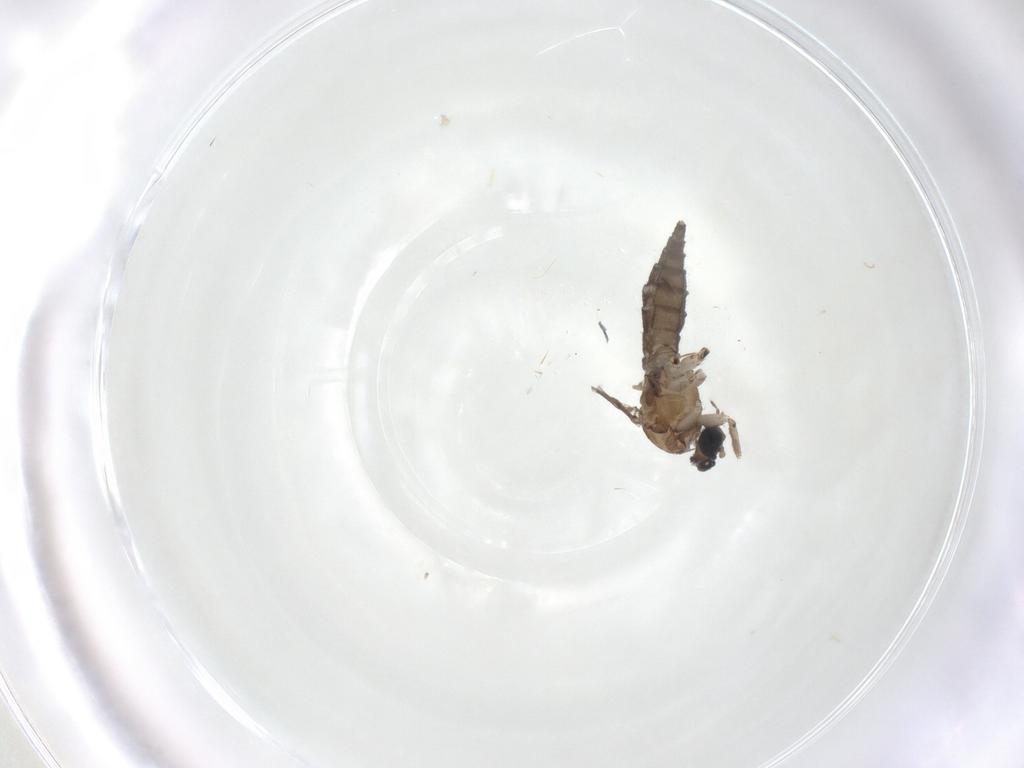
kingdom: Animalia
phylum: Arthropoda
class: Insecta
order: Diptera
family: Sciaridae
